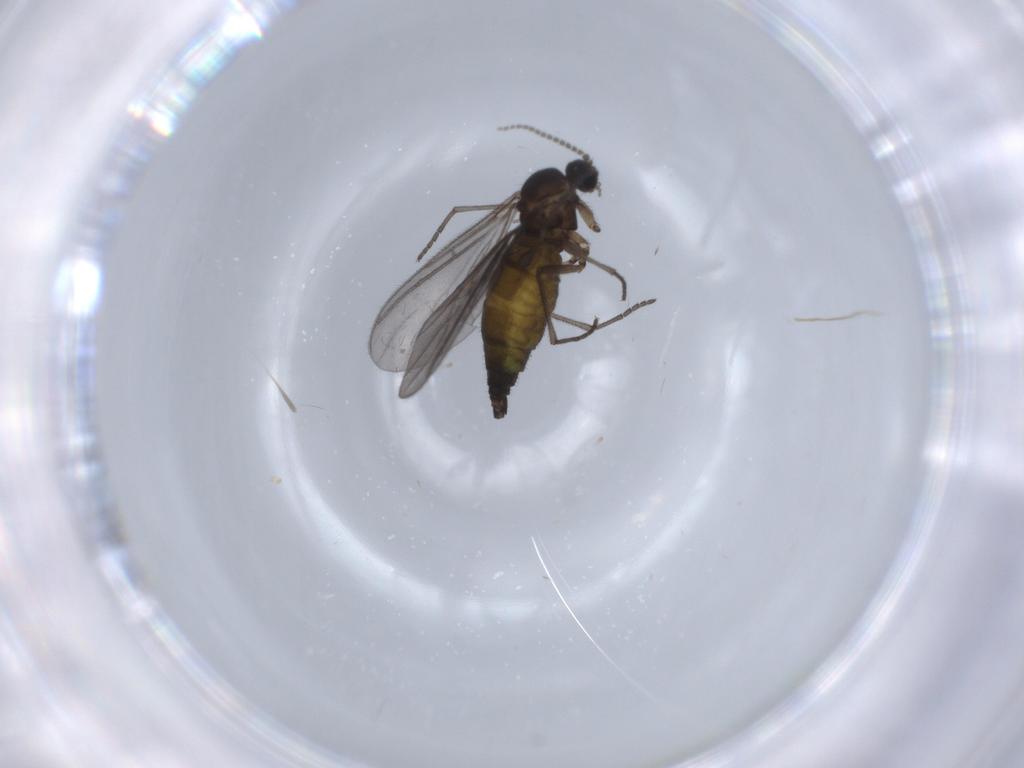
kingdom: Animalia
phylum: Arthropoda
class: Insecta
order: Diptera
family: Sciaridae
